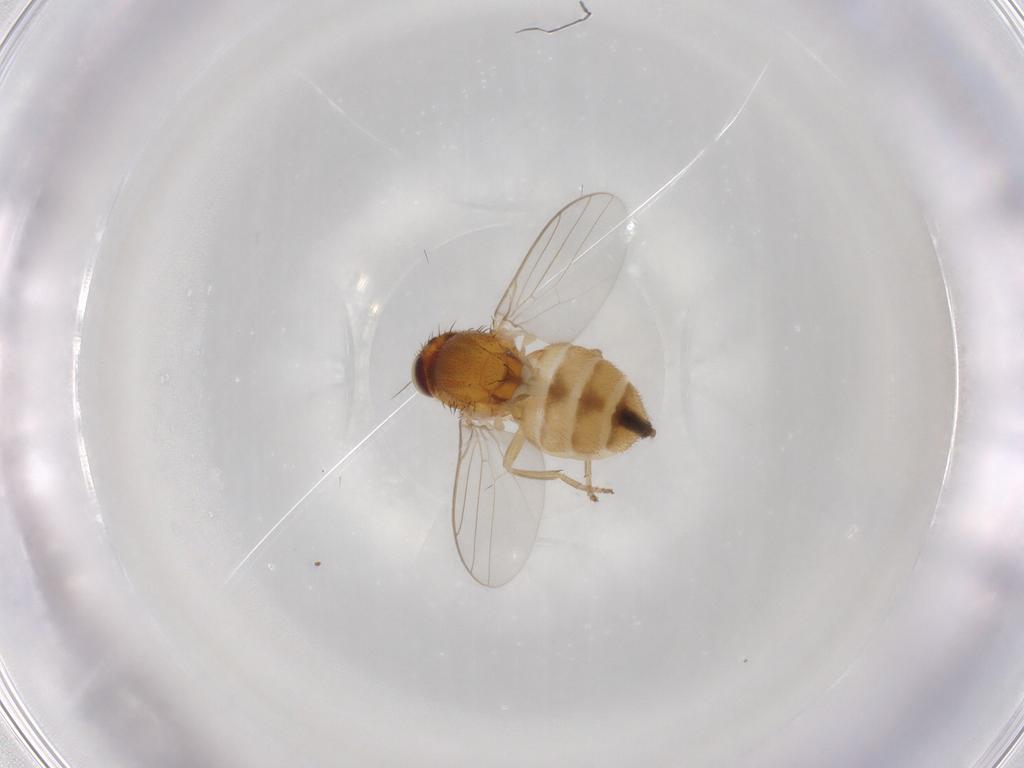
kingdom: Animalia
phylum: Arthropoda
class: Insecta
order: Diptera
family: Chloropidae
